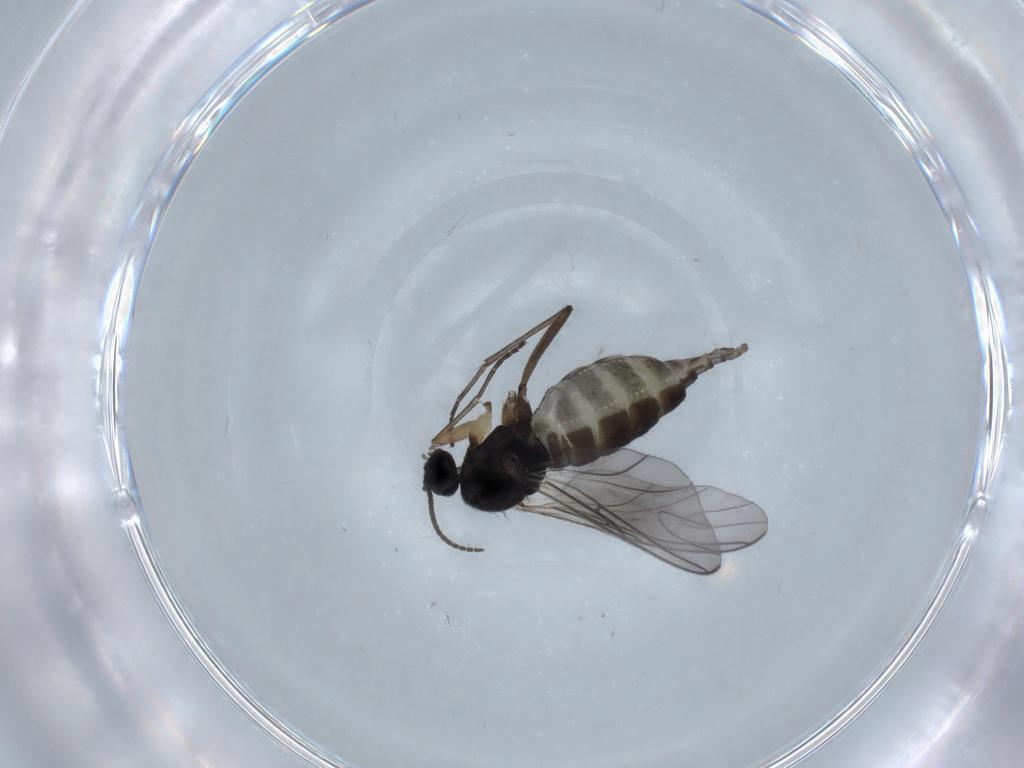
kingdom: Animalia
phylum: Arthropoda
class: Insecta
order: Diptera
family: Sciaridae
